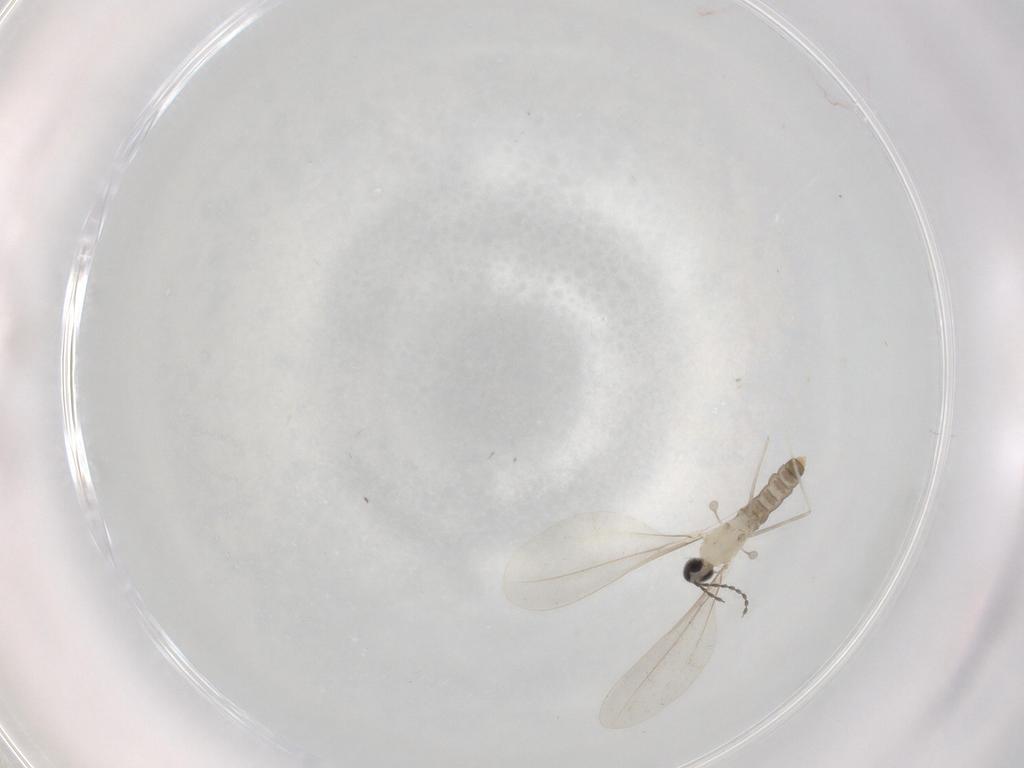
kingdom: Animalia
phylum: Arthropoda
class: Insecta
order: Diptera
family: Cecidomyiidae
